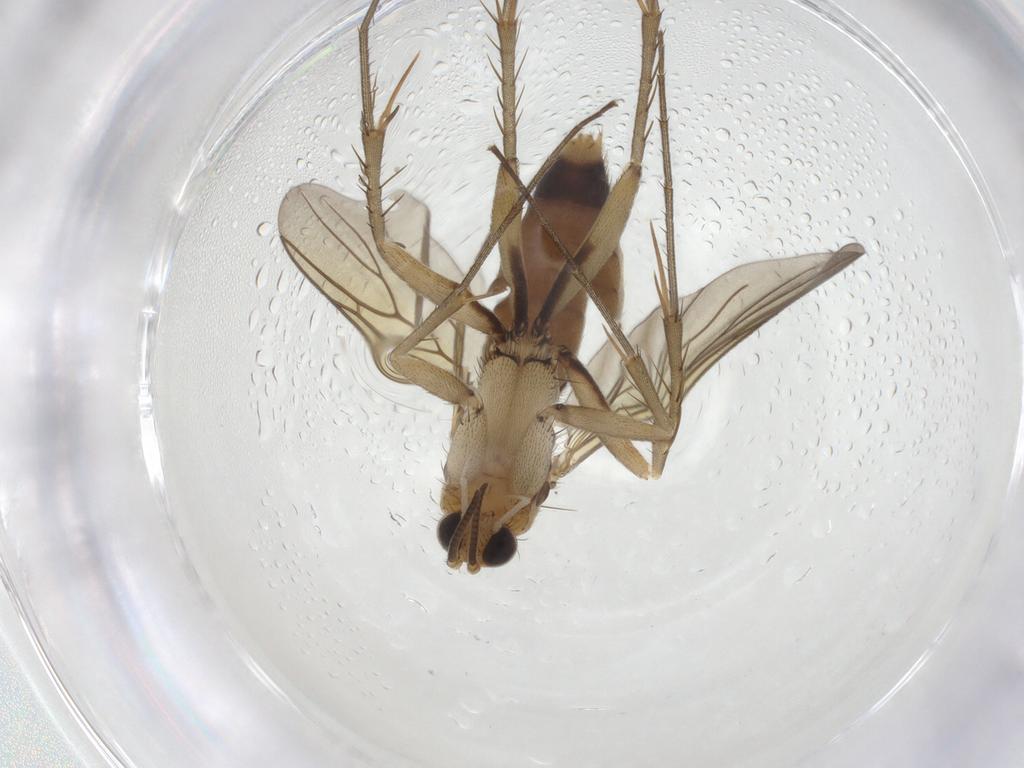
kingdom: Animalia
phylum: Arthropoda
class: Insecta
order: Diptera
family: Mycetophilidae
